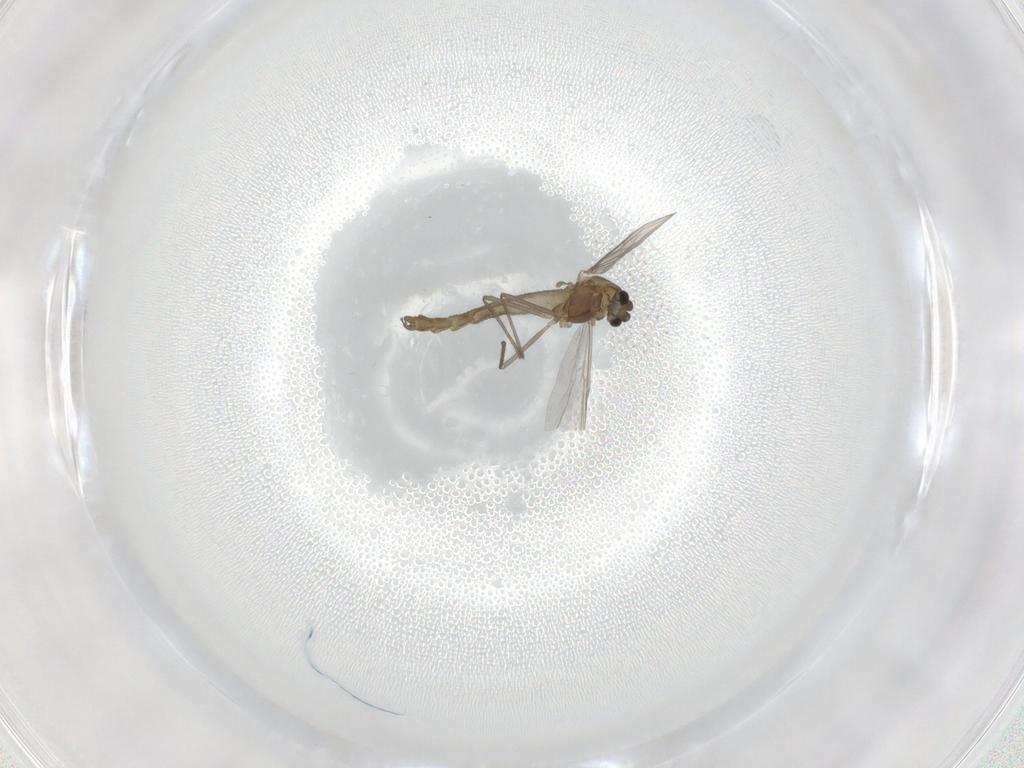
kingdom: Animalia
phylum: Arthropoda
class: Insecta
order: Diptera
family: Chironomidae
